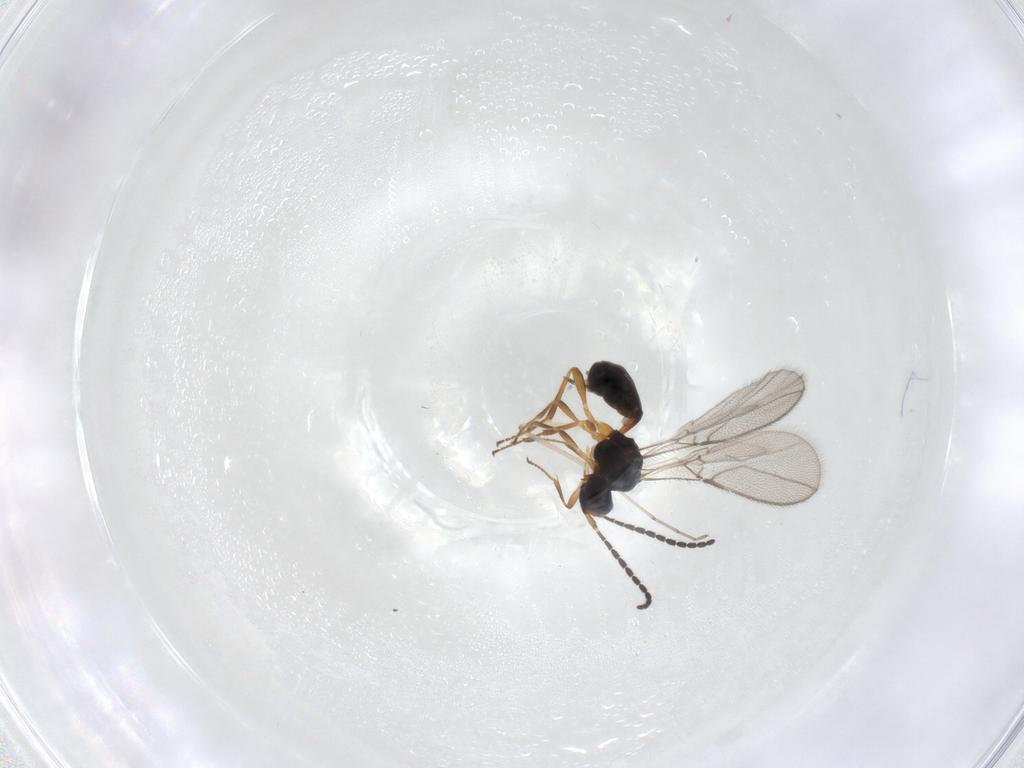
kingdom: Animalia
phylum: Arthropoda
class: Insecta
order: Hymenoptera
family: Braconidae
